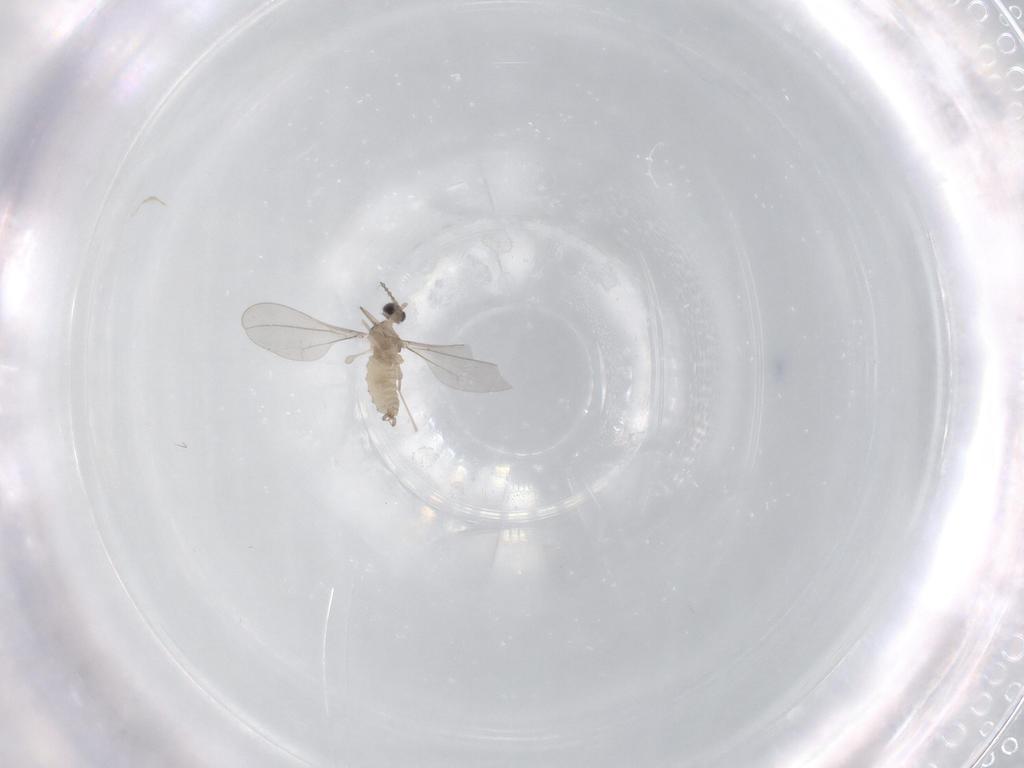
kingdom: Animalia
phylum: Arthropoda
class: Insecta
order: Diptera
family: Cecidomyiidae
